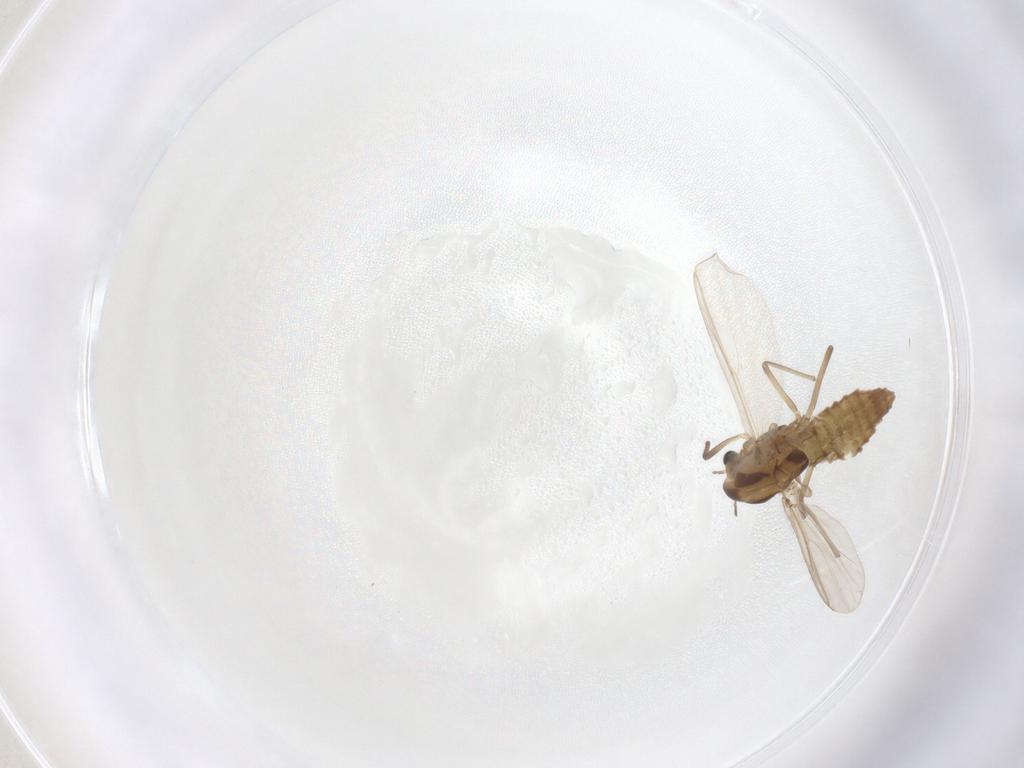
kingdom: Animalia
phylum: Arthropoda
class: Insecta
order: Diptera
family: Chironomidae
